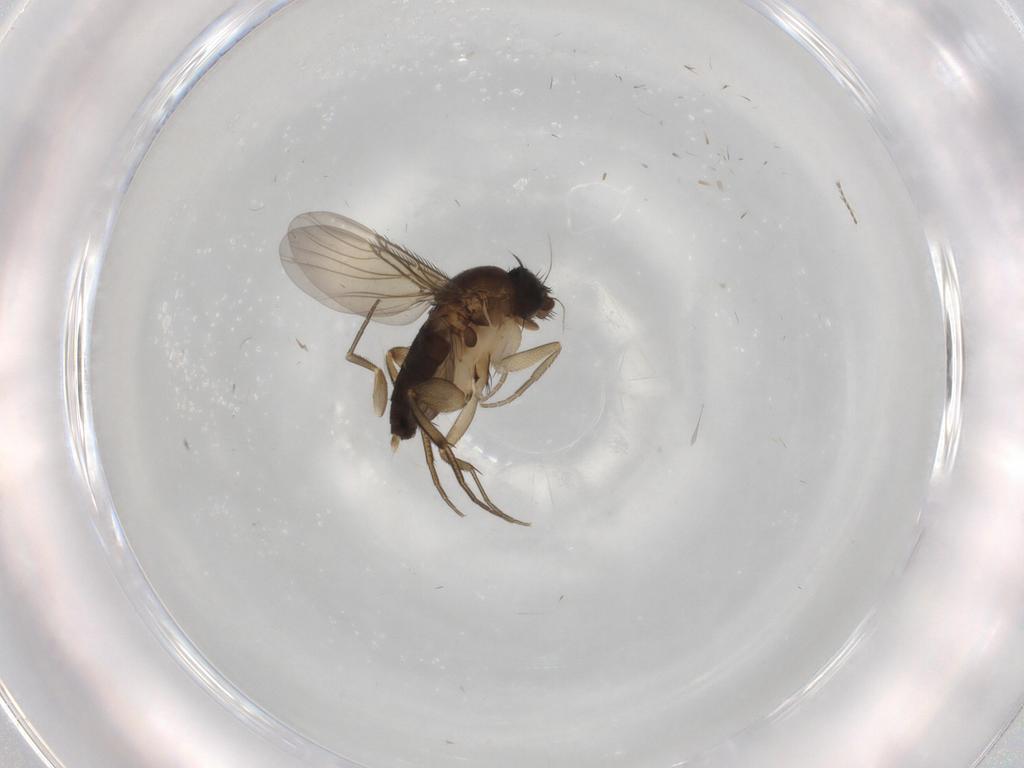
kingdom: Animalia
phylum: Arthropoda
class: Insecta
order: Diptera
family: Phoridae
